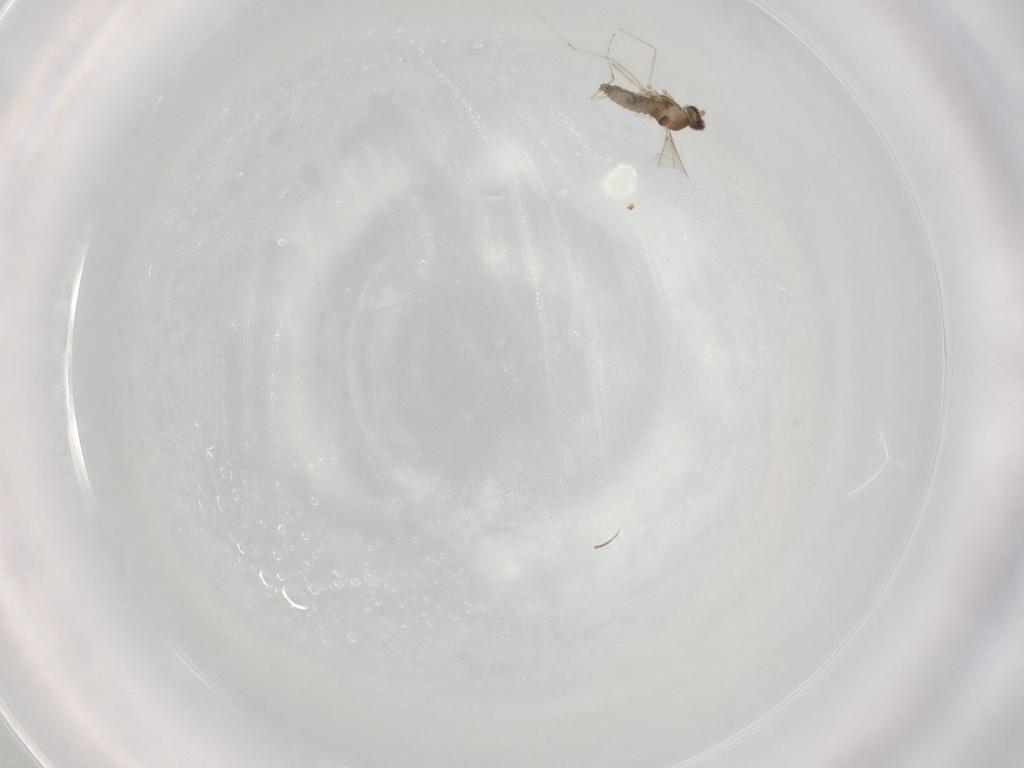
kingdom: Animalia
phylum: Arthropoda
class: Insecta
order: Diptera
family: Cecidomyiidae
